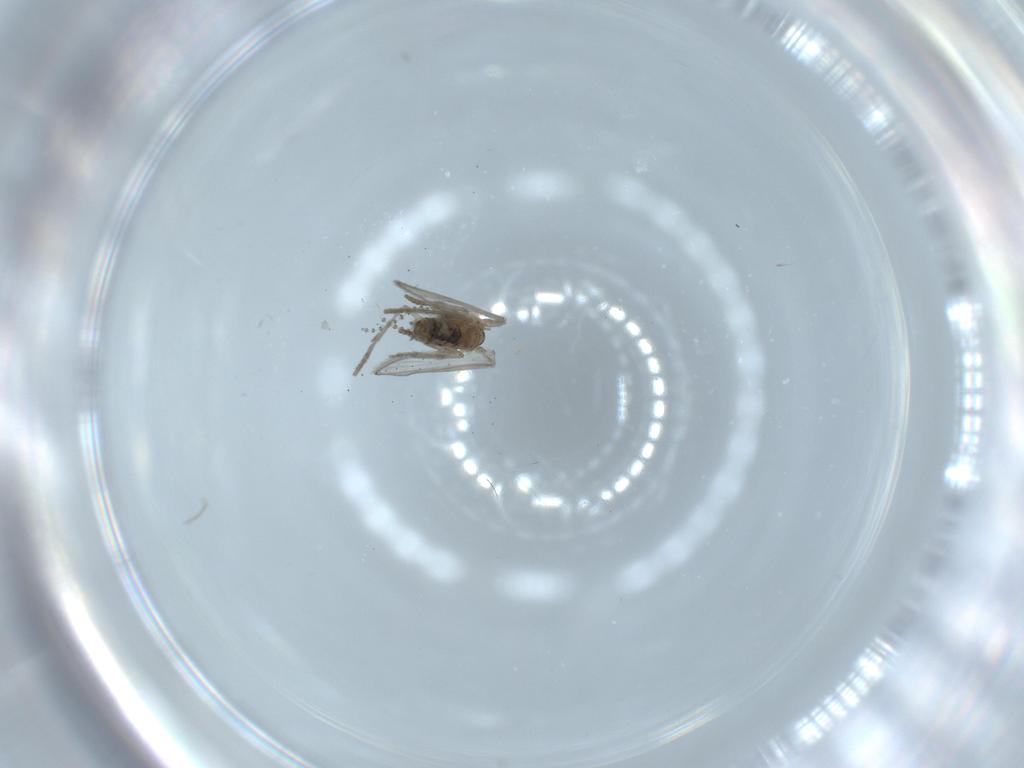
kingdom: Animalia
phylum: Arthropoda
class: Insecta
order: Diptera
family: Psychodidae
